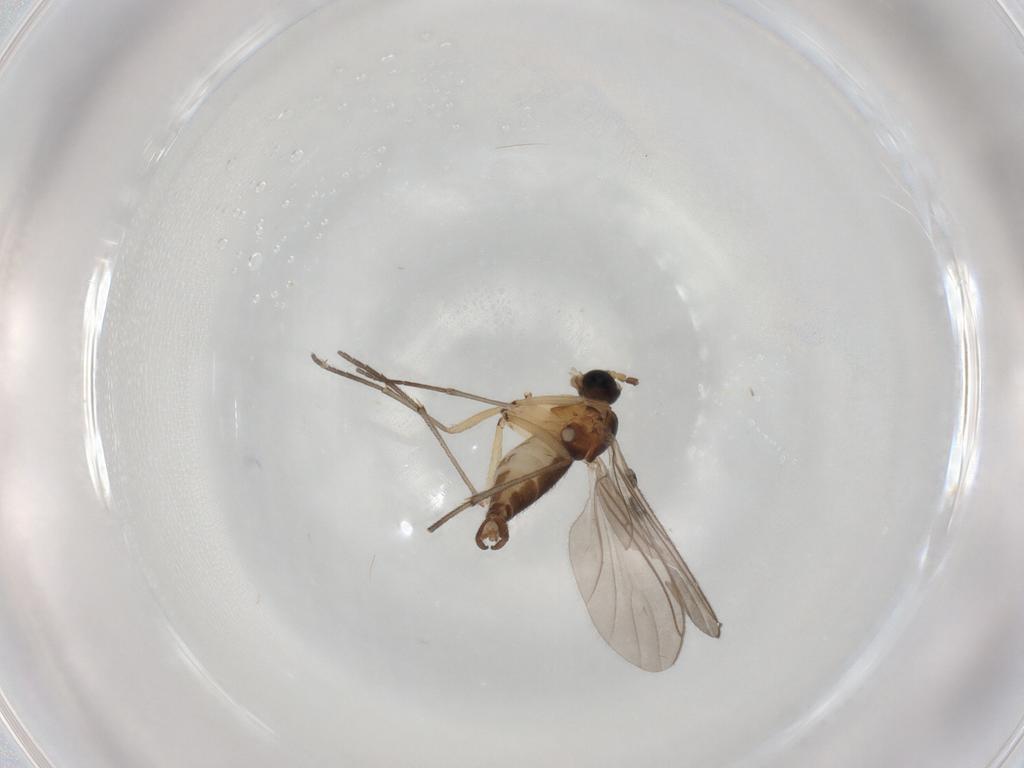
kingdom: Animalia
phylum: Arthropoda
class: Insecta
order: Diptera
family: Sciaridae
